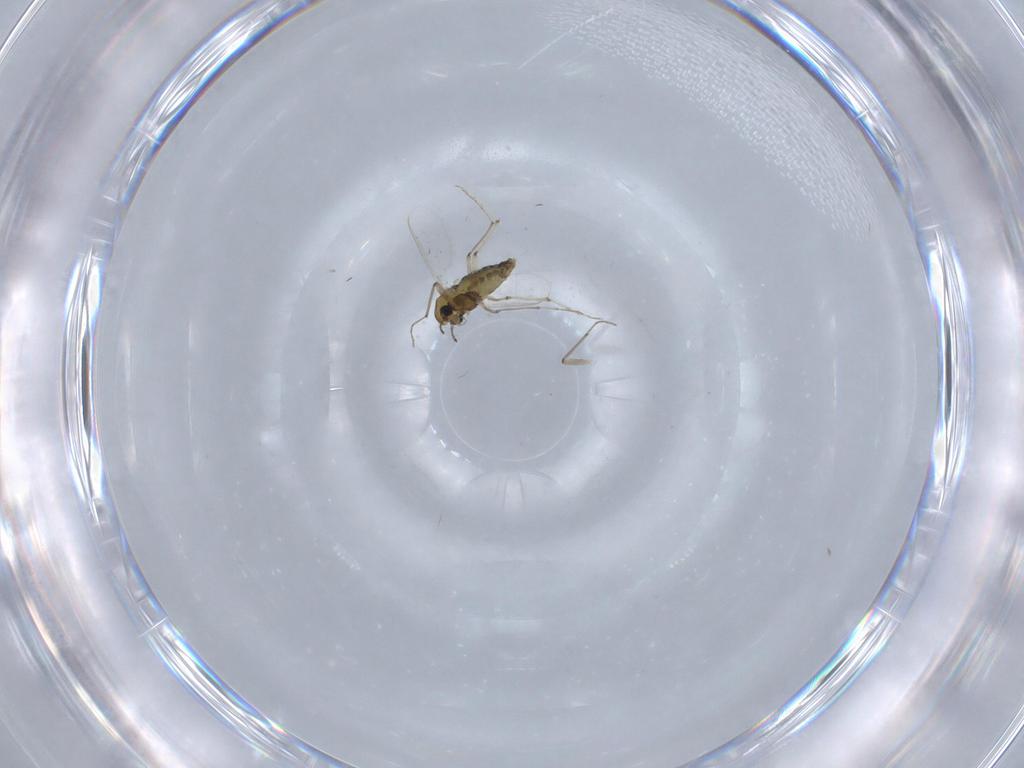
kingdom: Animalia
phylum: Arthropoda
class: Insecta
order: Diptera
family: Chironomidae
